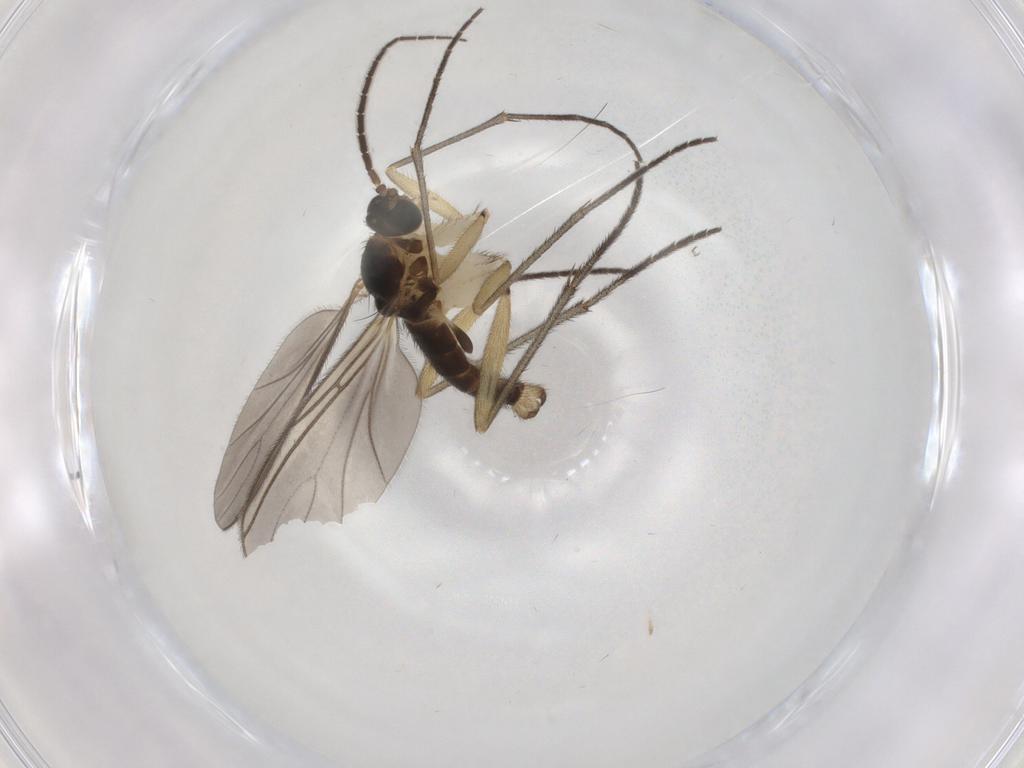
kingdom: Animalia
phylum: Arthropoda
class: Insecta
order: Diptera
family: Sciaridae
